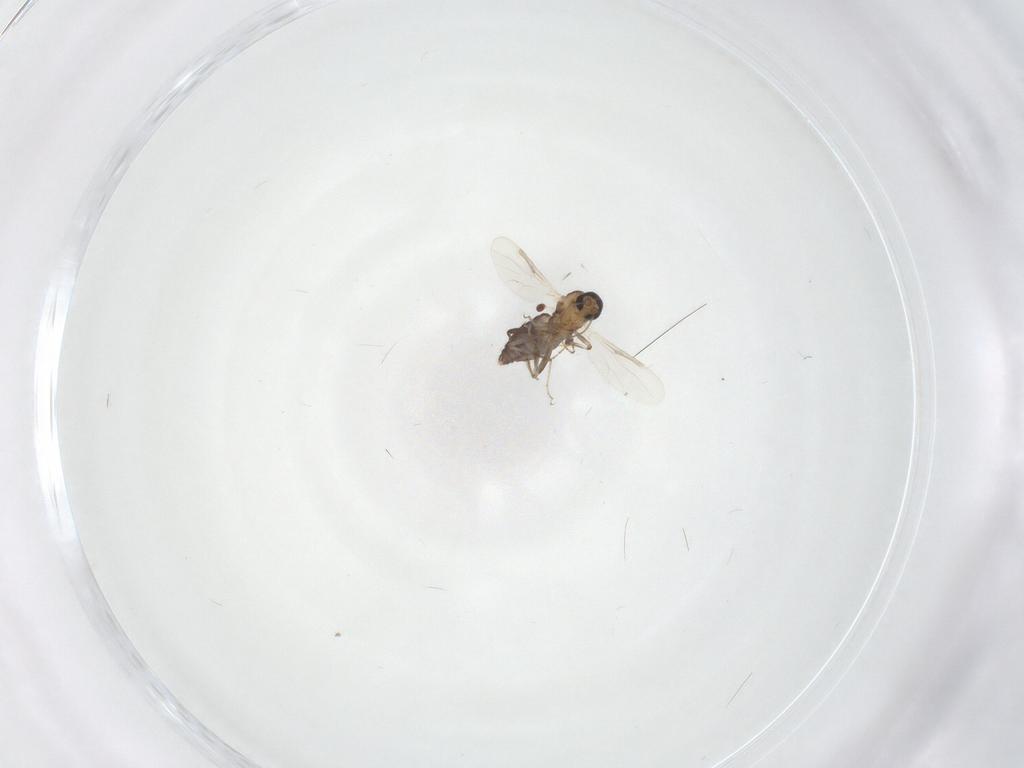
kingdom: Animalia
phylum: Arthropoda
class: Insecta
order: Diptera
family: Ceratopogonidae
